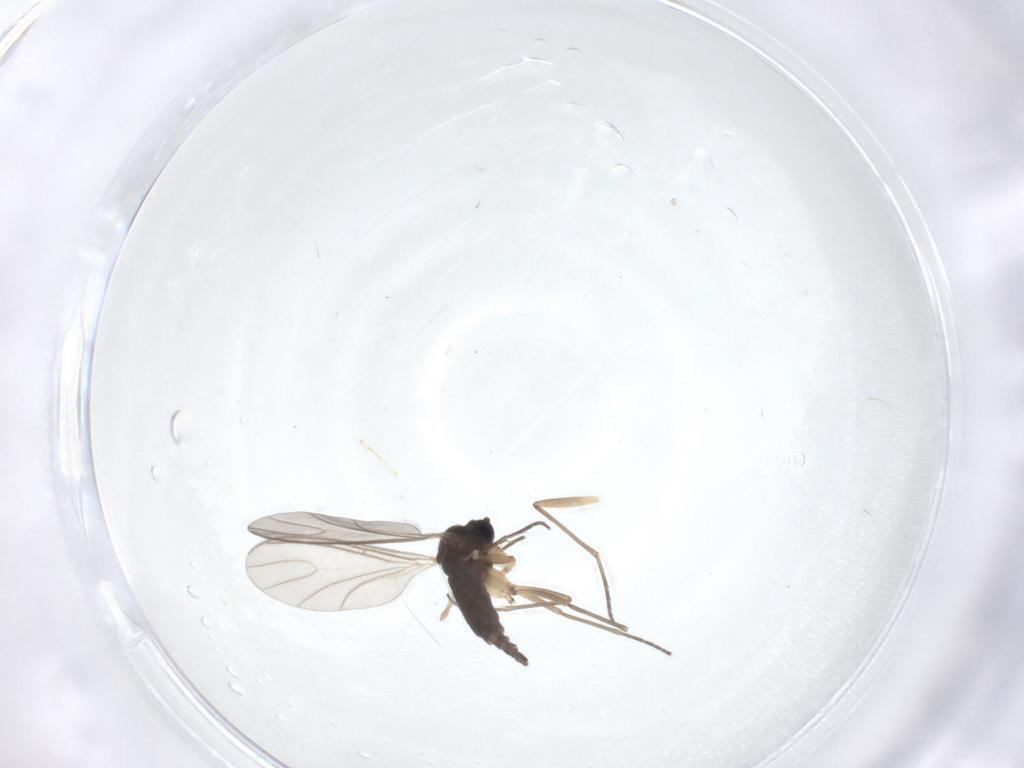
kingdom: Animalia
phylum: Arthropoda
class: Insecta
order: Diptera
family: Sciaridae
